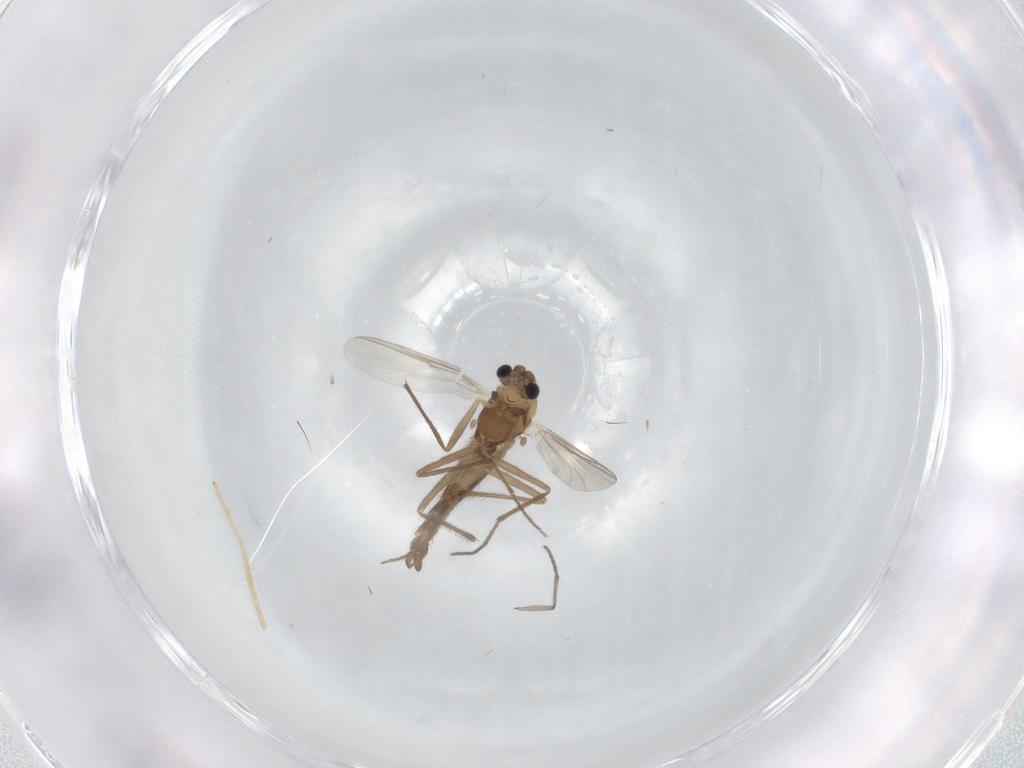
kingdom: Animalia
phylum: Arthropoda
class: Insecta
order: Diptera
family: Chironomidae
